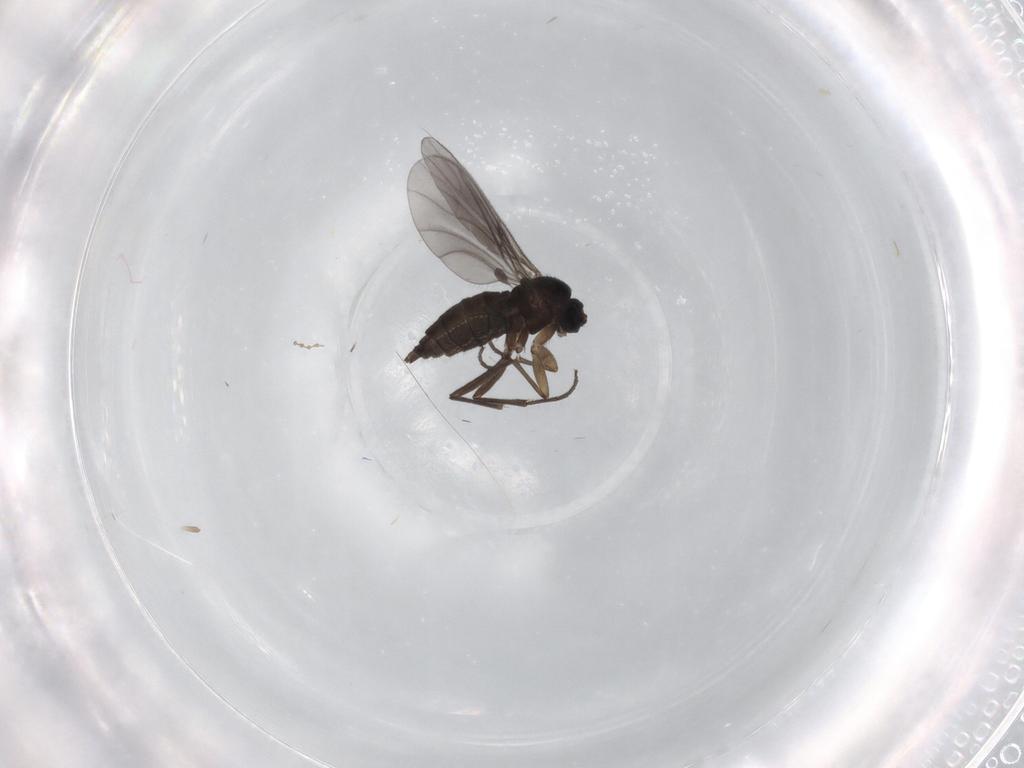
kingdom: Animalia
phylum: Arthropoda
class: Insecta
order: Diptera
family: Sciaridae
